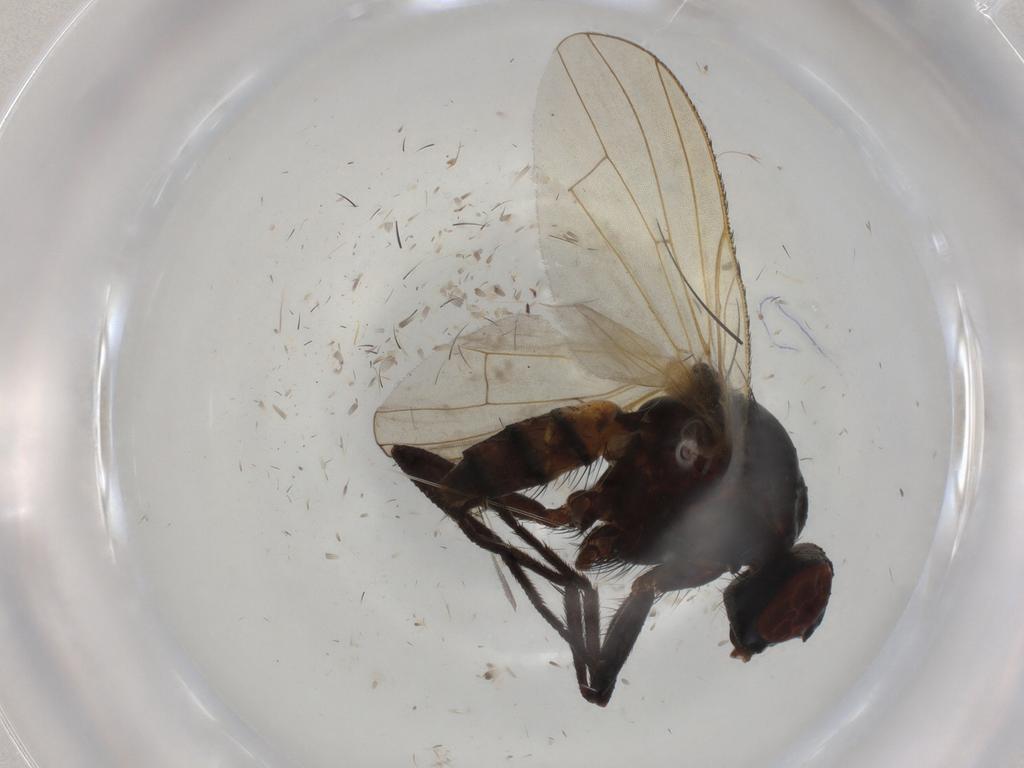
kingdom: Animalia
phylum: Arthropoda
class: Insecta
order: Diptera
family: Anthomyiidae
